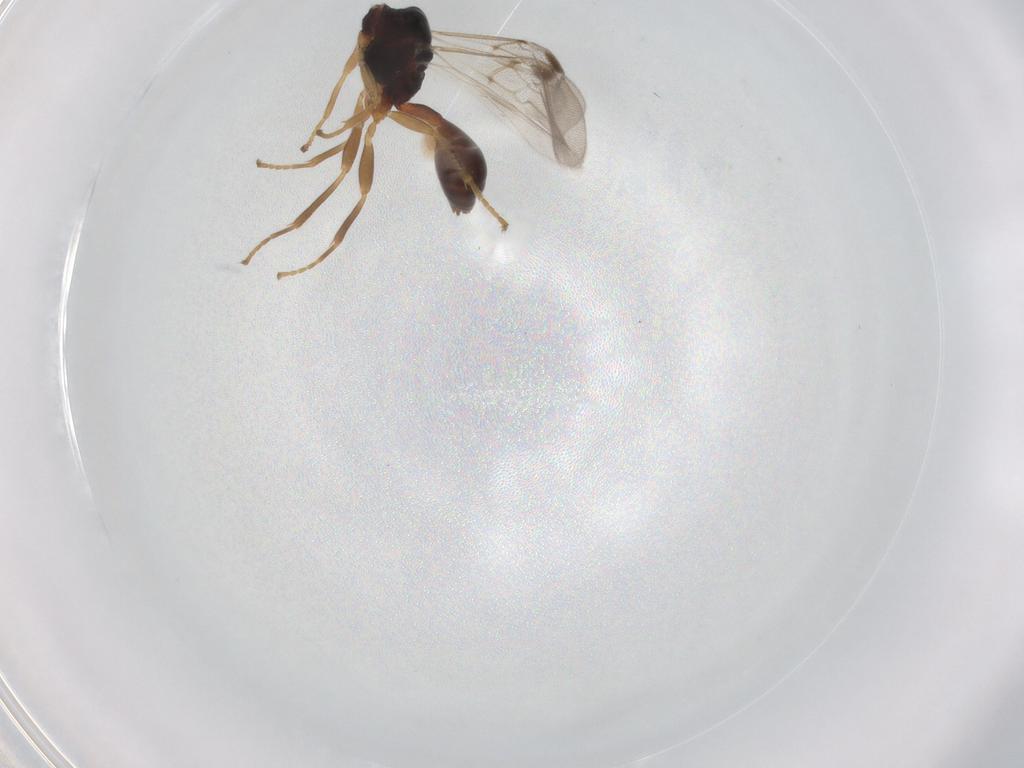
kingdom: Animalia
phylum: Arthropoda
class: Insecta
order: Hymenoptera
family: Braconidae
